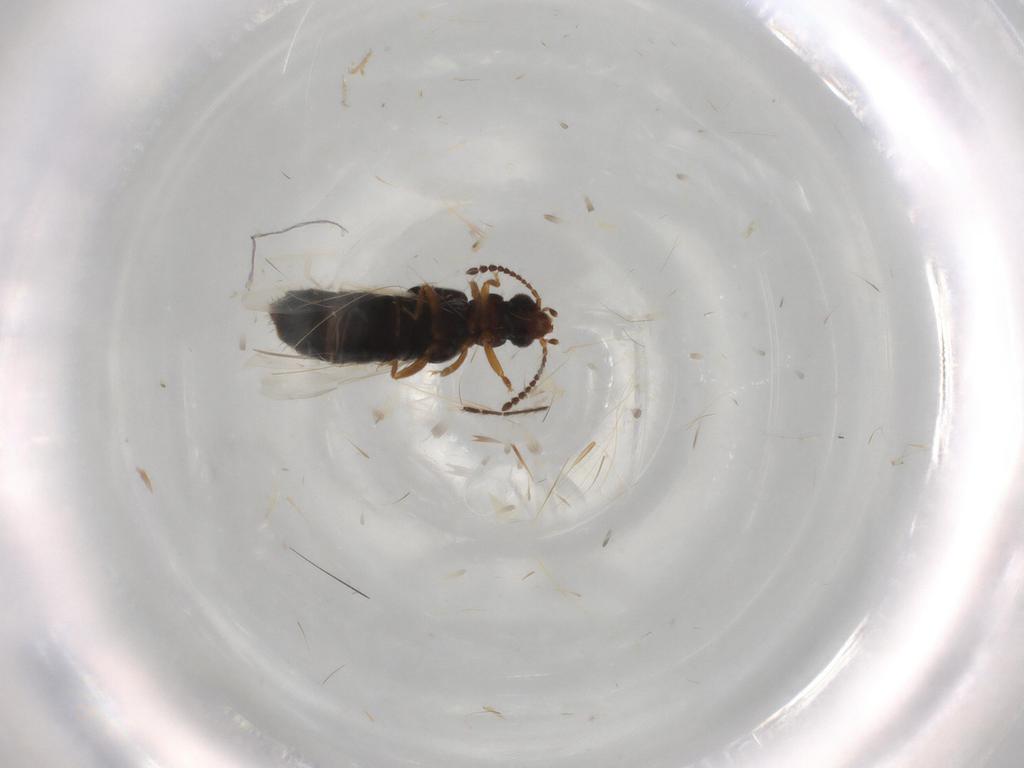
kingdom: Animalia
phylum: Arthropoda
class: Insecta
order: Coleoptera
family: Staphylinidae
